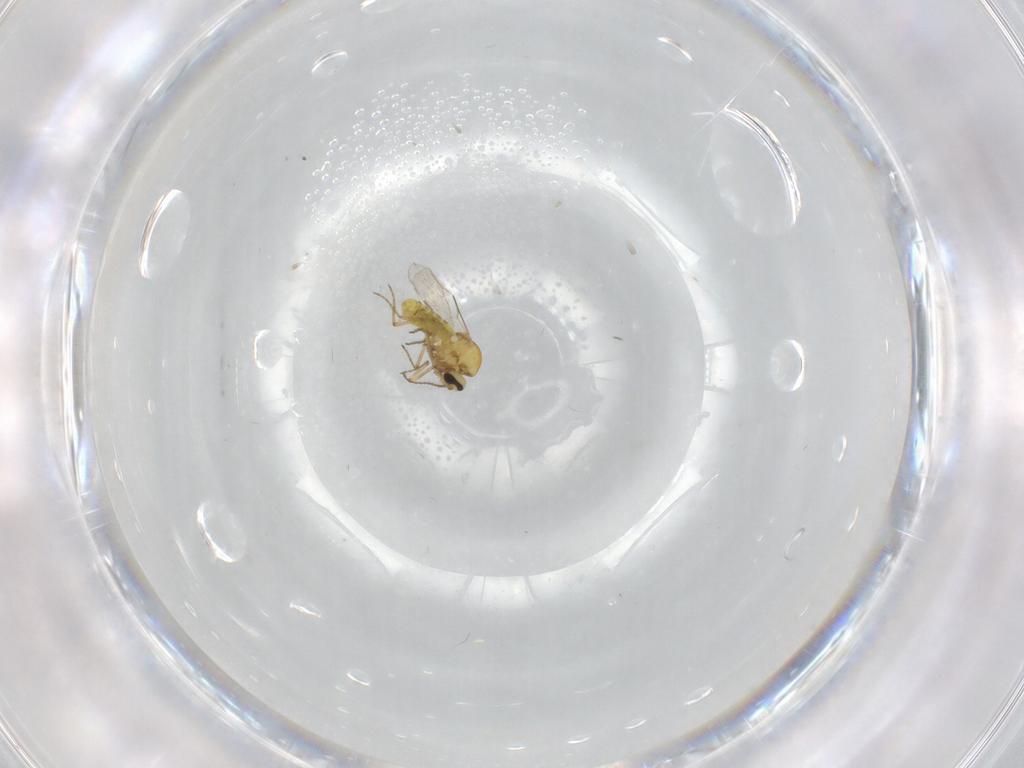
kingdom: Animalia
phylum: Arthropoda
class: Insecta
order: Diptera
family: Ceratopogonidae
